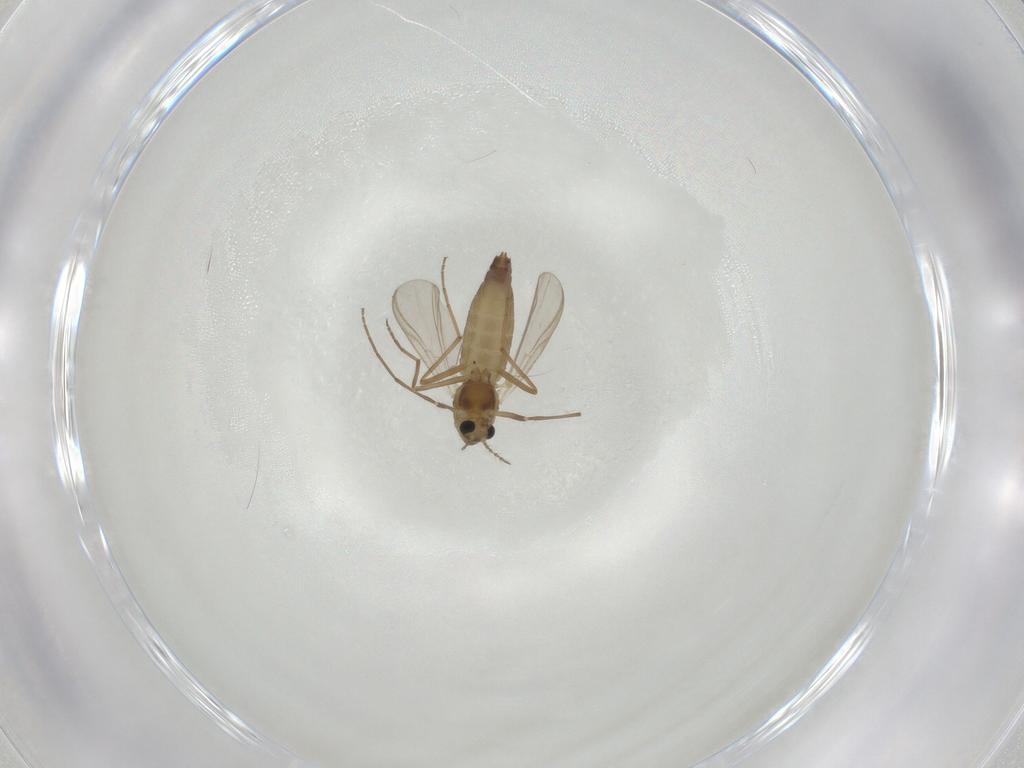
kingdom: Animalia
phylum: Arthropoda
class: Insecta
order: Diptera
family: Chironomidae
